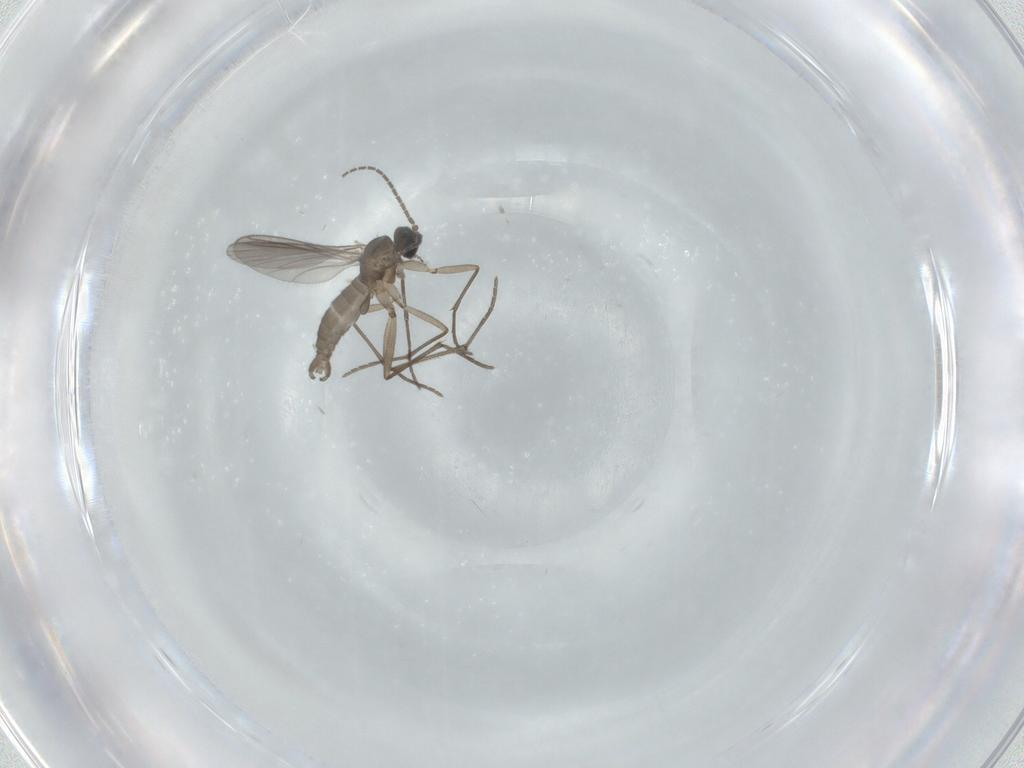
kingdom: Animalia
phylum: Arthropoda
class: Insecta
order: Diptera
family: Sciaridae
